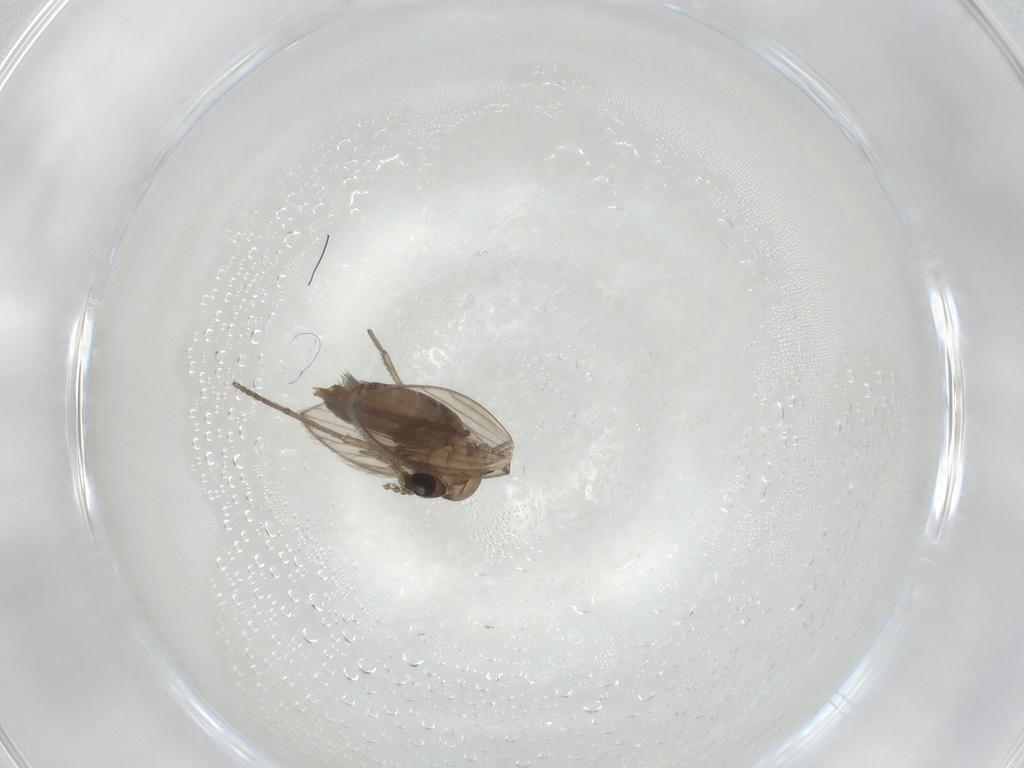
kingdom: Animalia
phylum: Arthropoda
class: Insecta
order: Diptera
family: Psychodidae
